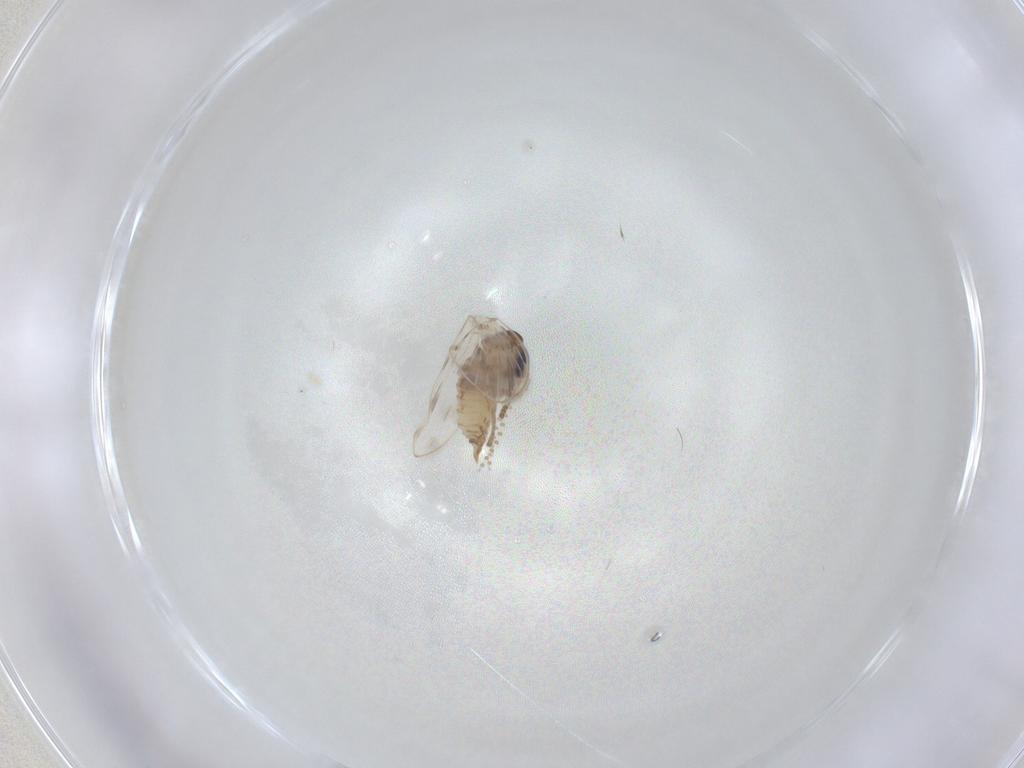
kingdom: Animalia
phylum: Arthropoda
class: Insecta
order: Diptera
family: Psychodidae
